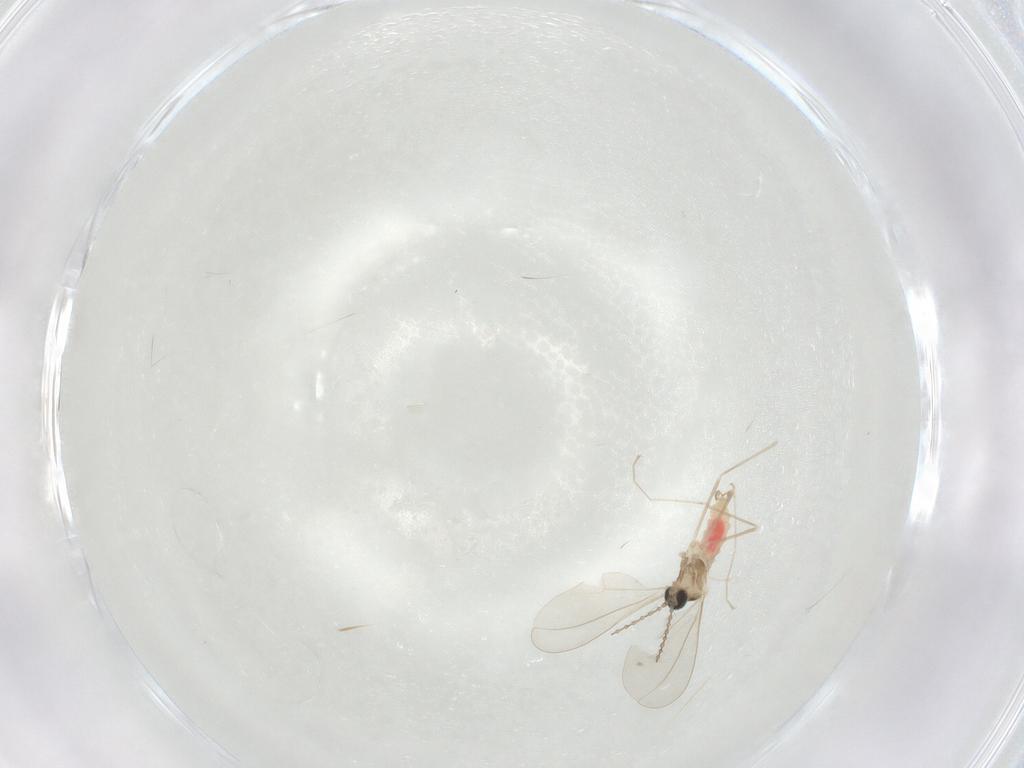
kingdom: Animalia
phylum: Arthropoda
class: Insecta
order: Diptera
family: Cecidomyiidae
